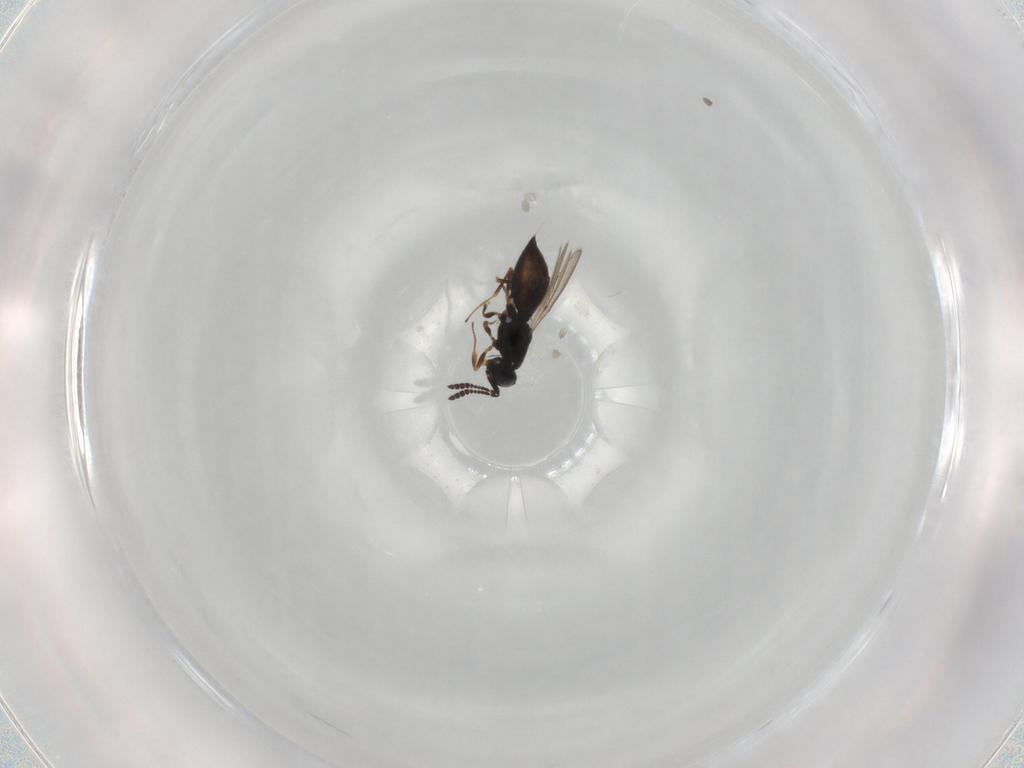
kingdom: Animalia
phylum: Arthropoda
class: Insecta
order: Hymenoptera
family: Scelionidae
